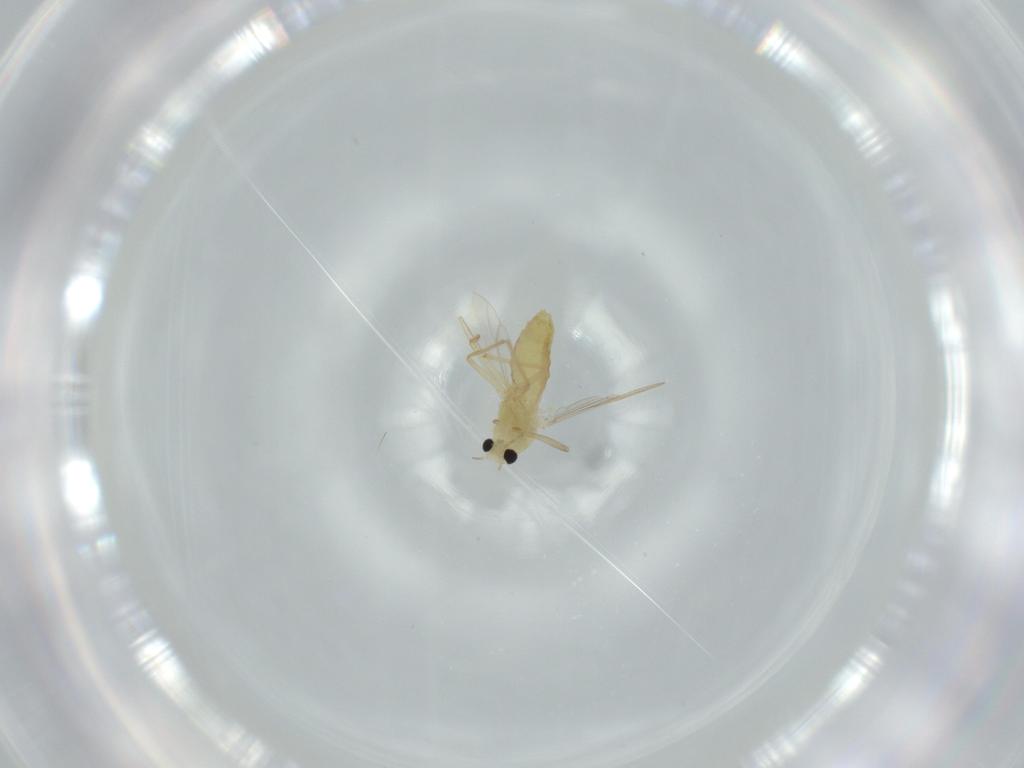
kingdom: Animalia
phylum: Arthropoda
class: Insecta
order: Diptera
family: Chironomidae
